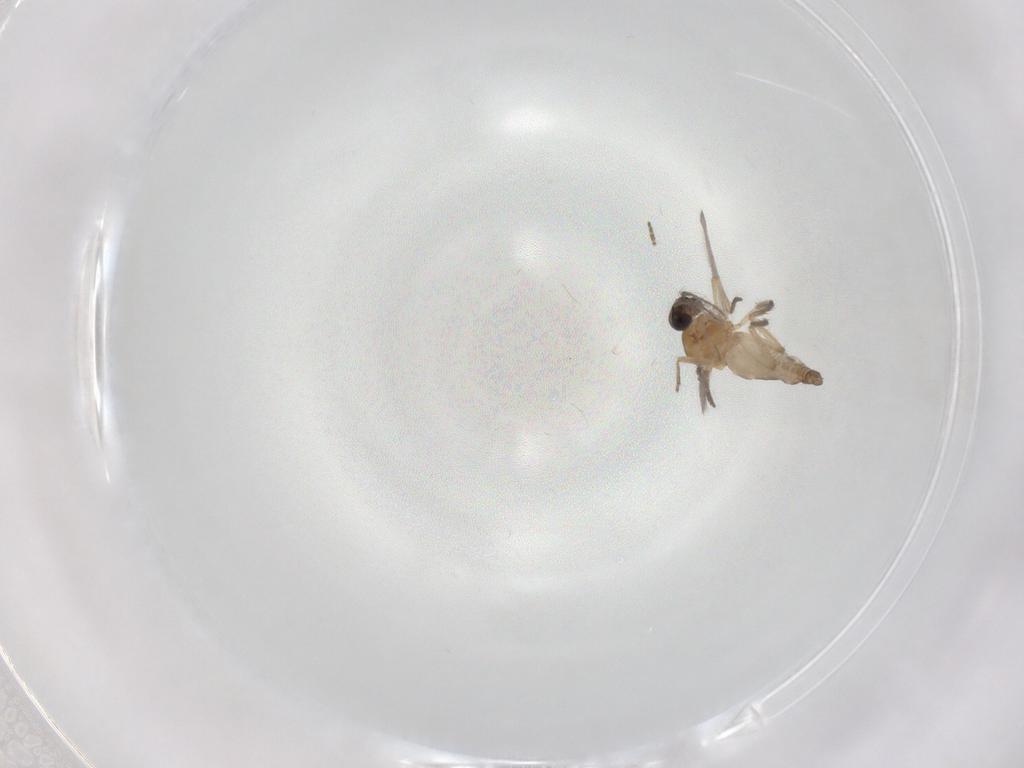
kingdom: Animalia
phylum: Arthropoda
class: Insecta
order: Diptera
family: Ceratopogonidae
